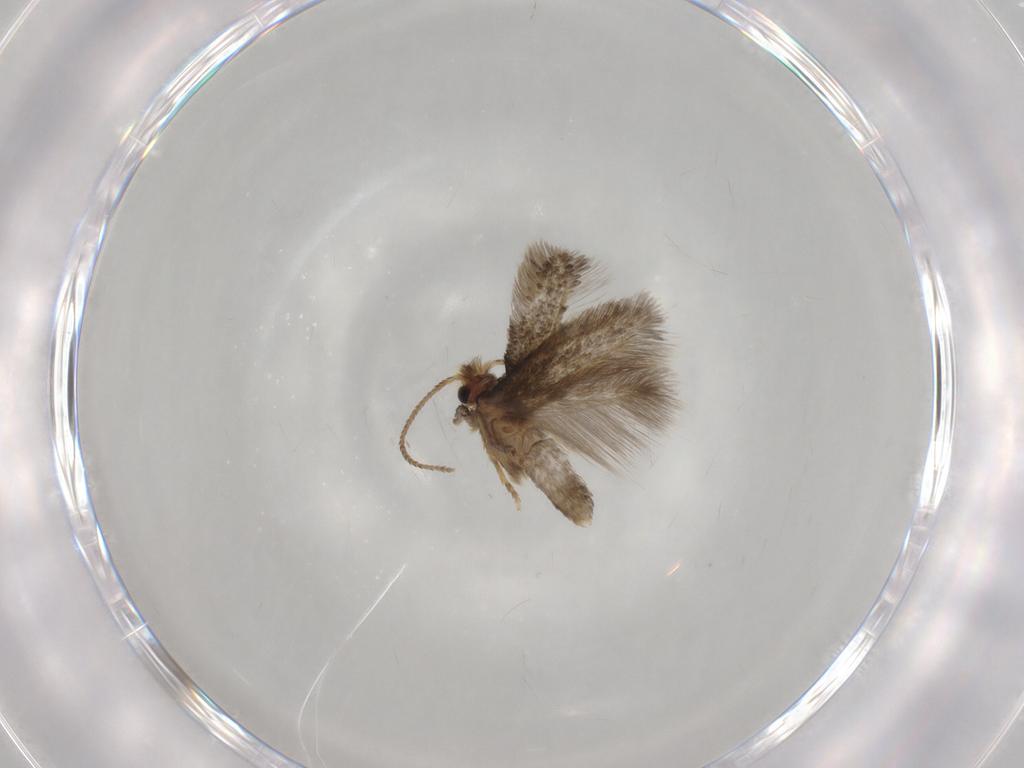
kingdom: Animalia
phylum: Arthropoda
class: Insecta
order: Lepidoptera
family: Nepticulidae
